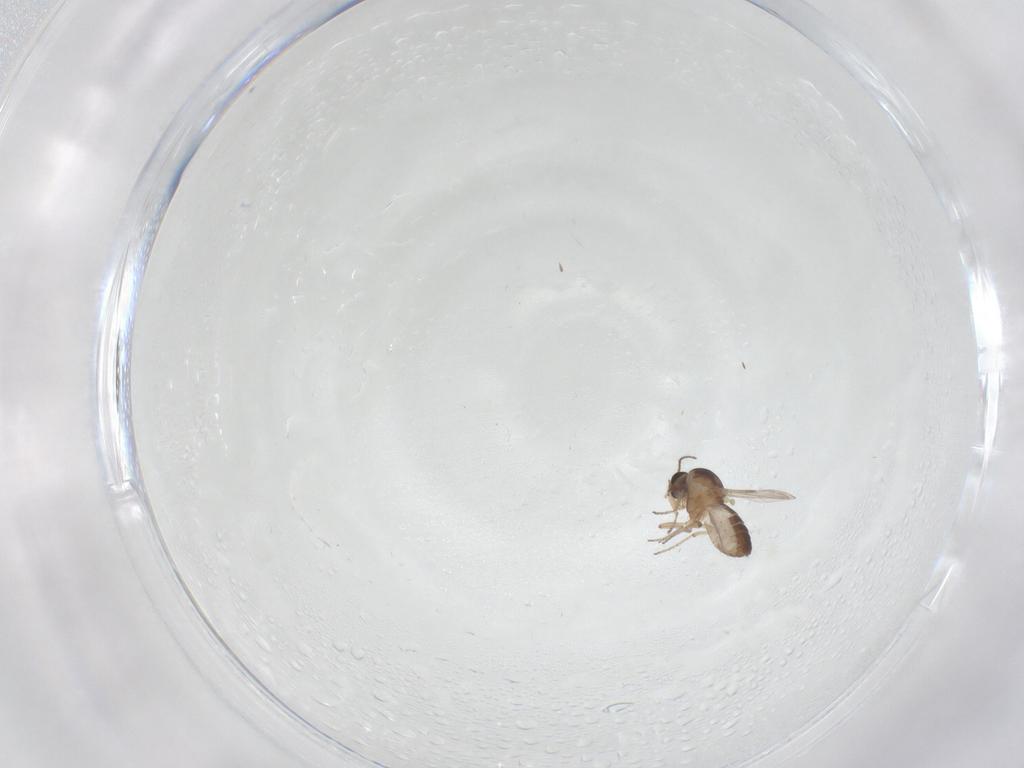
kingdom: Animalia
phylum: Arthropoda
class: Insecta
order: Diptera
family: Ceratopogonidae
